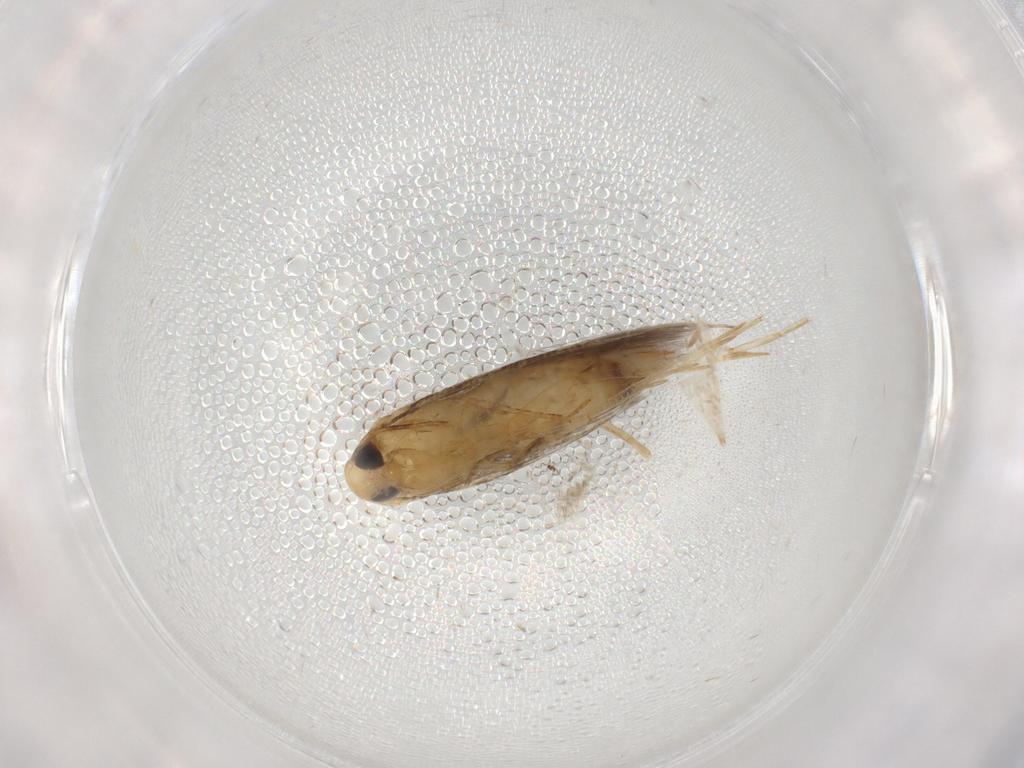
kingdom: Animalia
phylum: Arthropoda
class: Insecta
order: Lepidoptera
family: Cosmopterigidae
